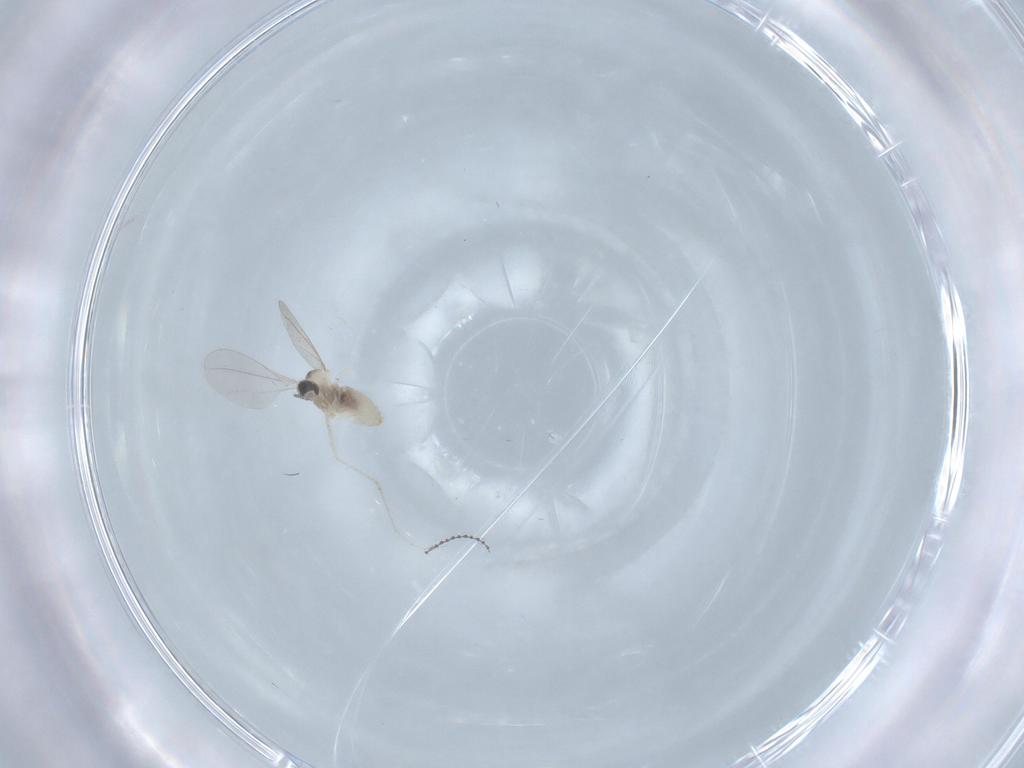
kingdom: Animalia
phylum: Arthropoda
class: Insecta
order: Diptera
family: Cecidomyiidae
